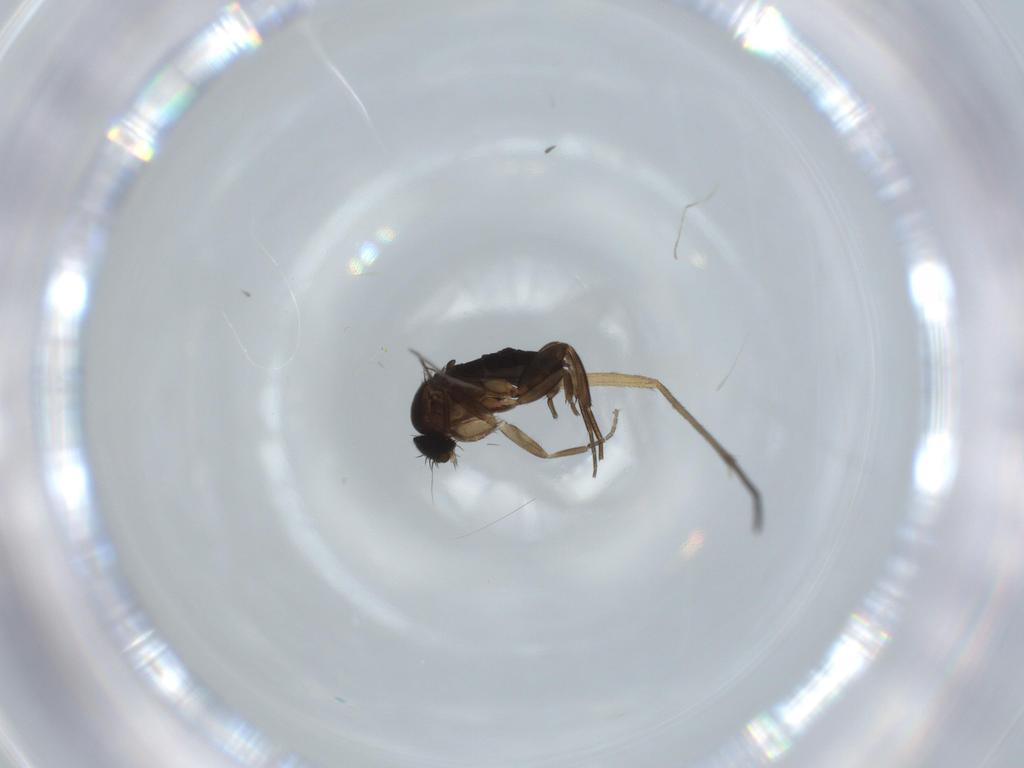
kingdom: Animalia
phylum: Arthropoda
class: Insecta
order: Diptera
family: Phoridae
